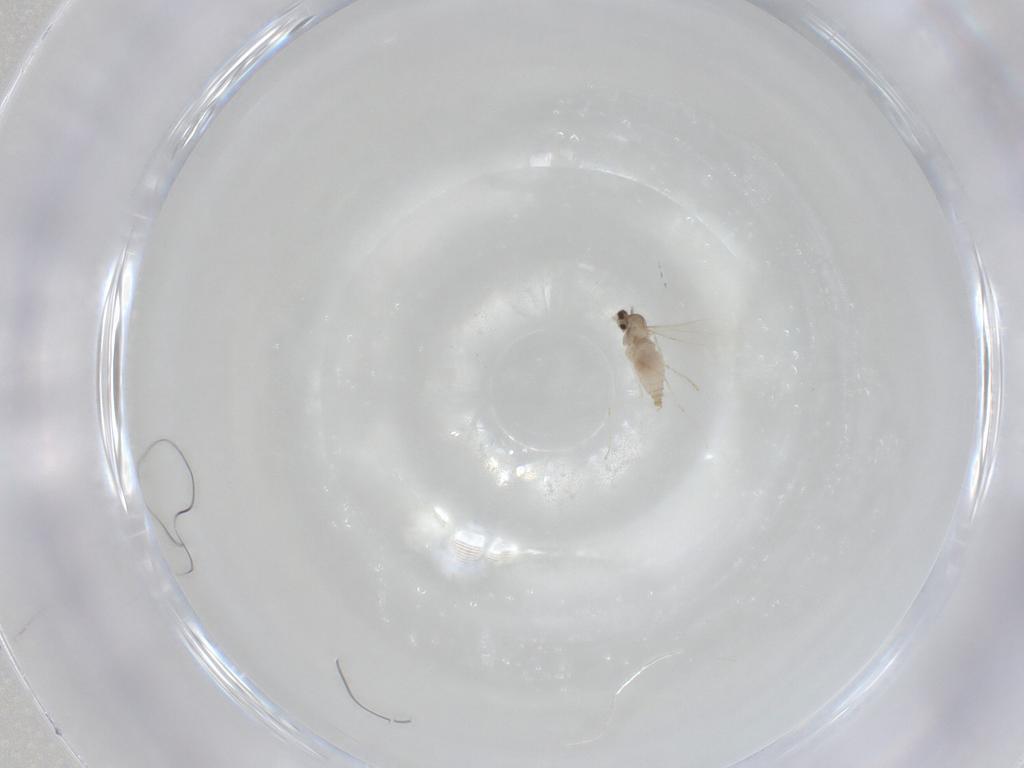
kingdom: Animalia
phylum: Arthropoda
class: Insecta
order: Diptera
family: Cecidomyiidae
